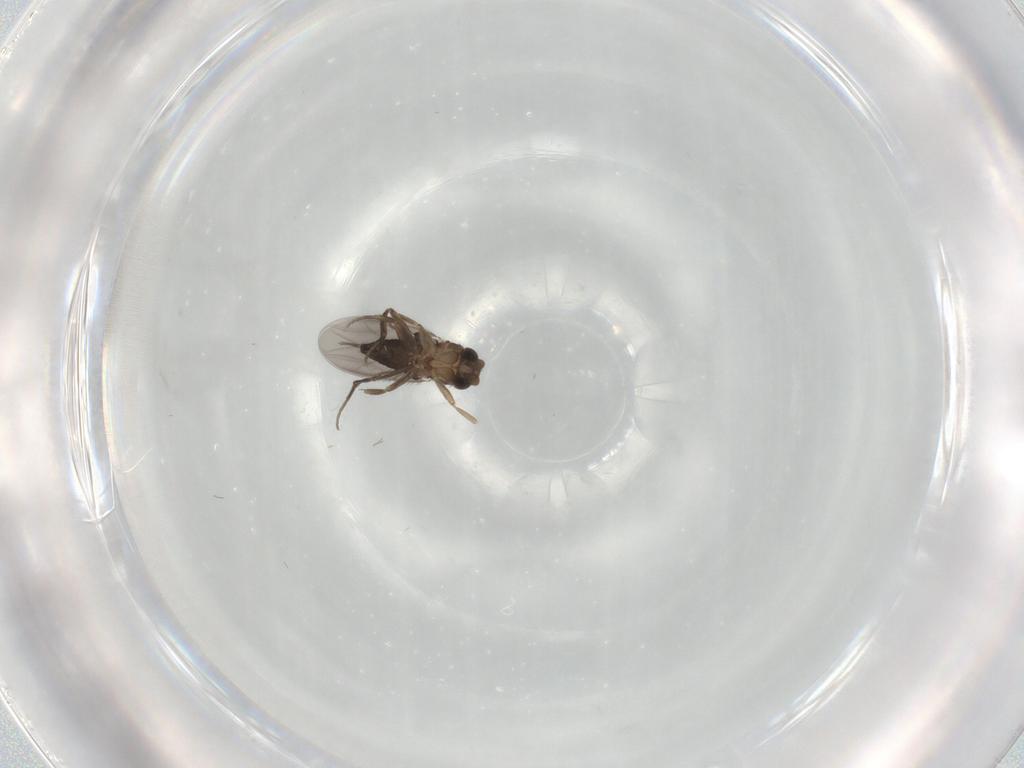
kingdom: Animalia
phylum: Arthropoda
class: Insecta
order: Diptera
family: Phoridae
